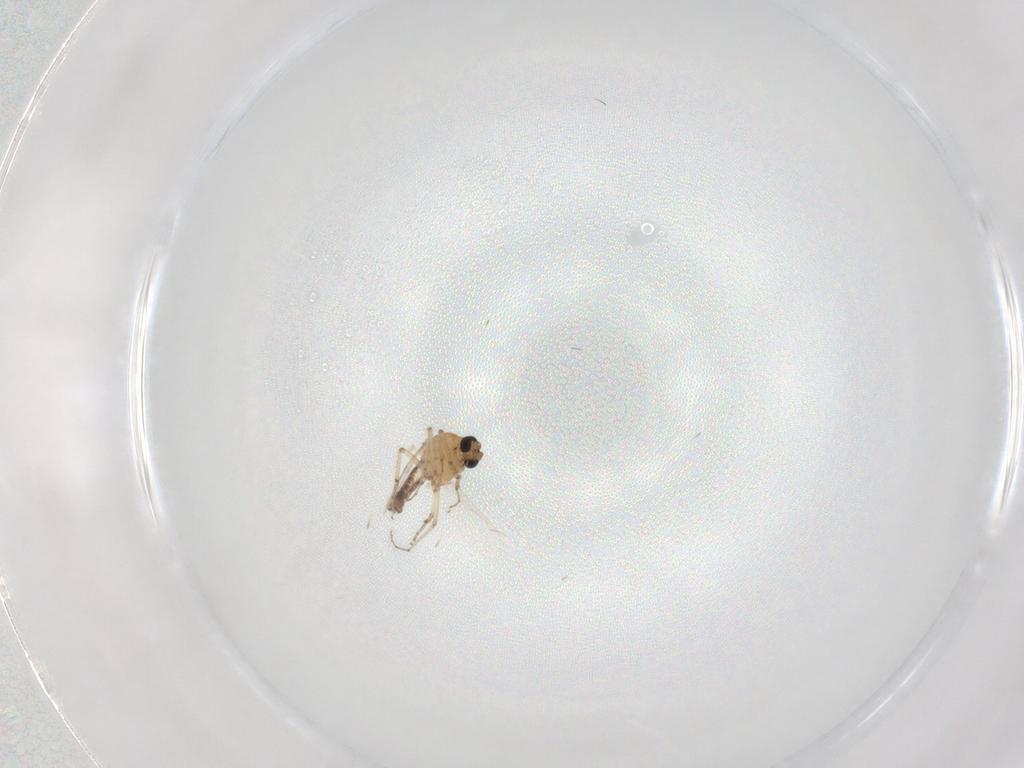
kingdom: Animalia
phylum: Arthropoda
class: Insecta
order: Diptera
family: Ceratopogonidae
